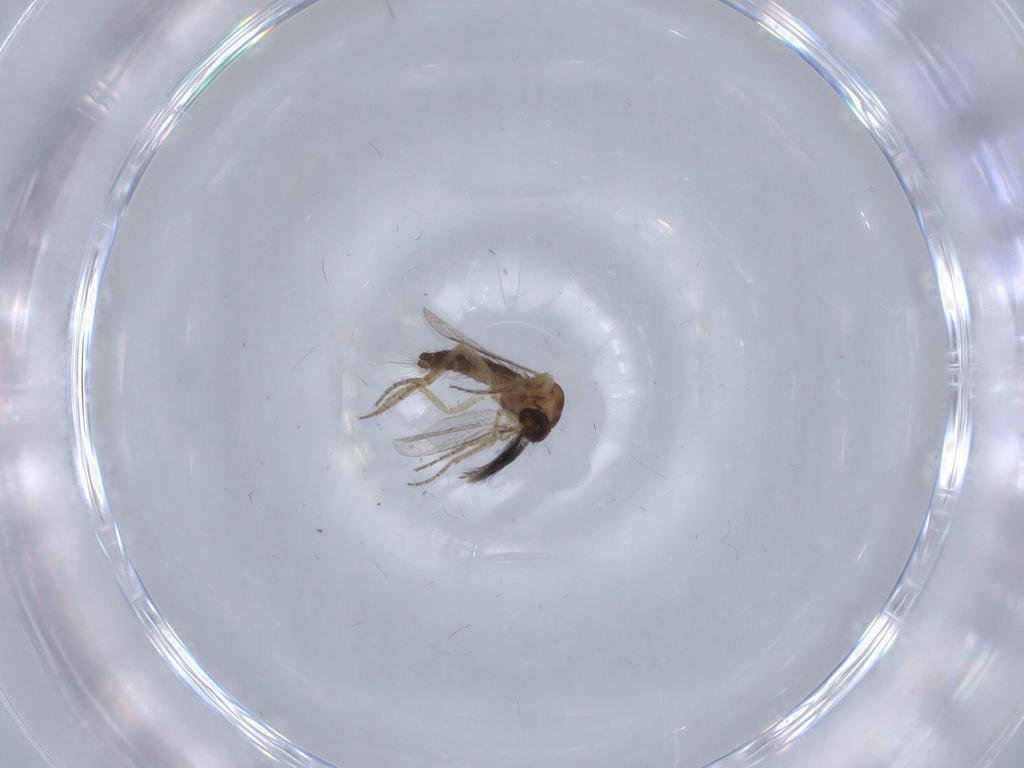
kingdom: Animalia
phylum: Arthropoda
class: Insecta
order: Diptera
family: Ceratopogonidae
